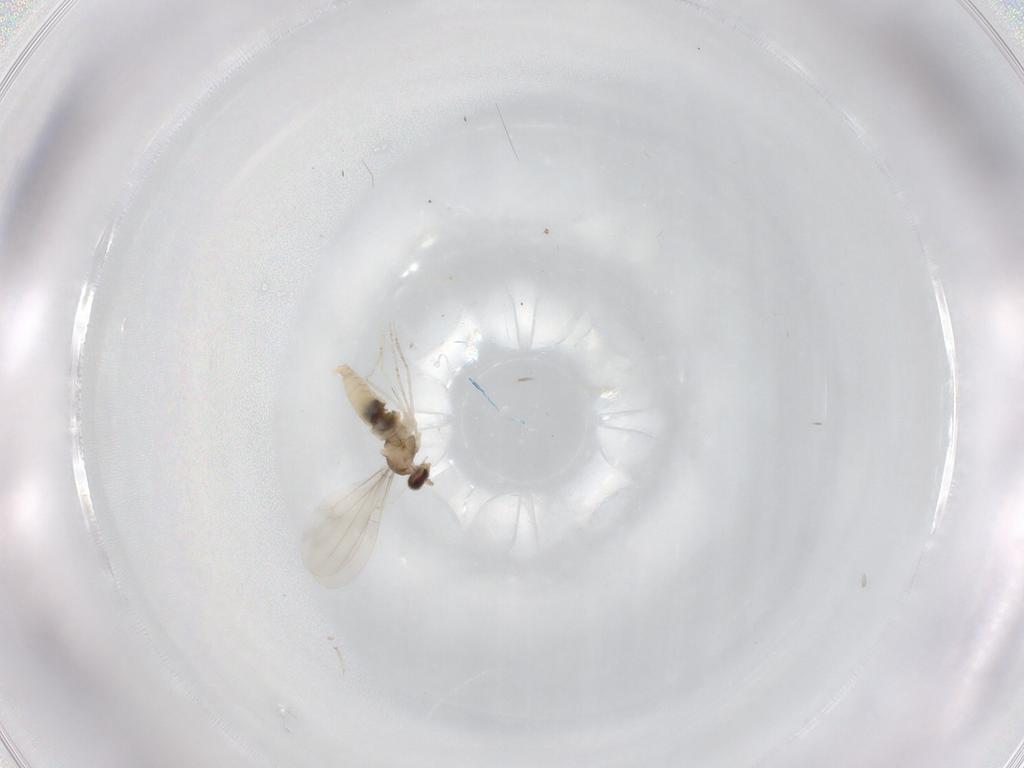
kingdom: Animalia
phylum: Arthropoda
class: Insecta
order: Diptera
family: Cecidomyiidae
